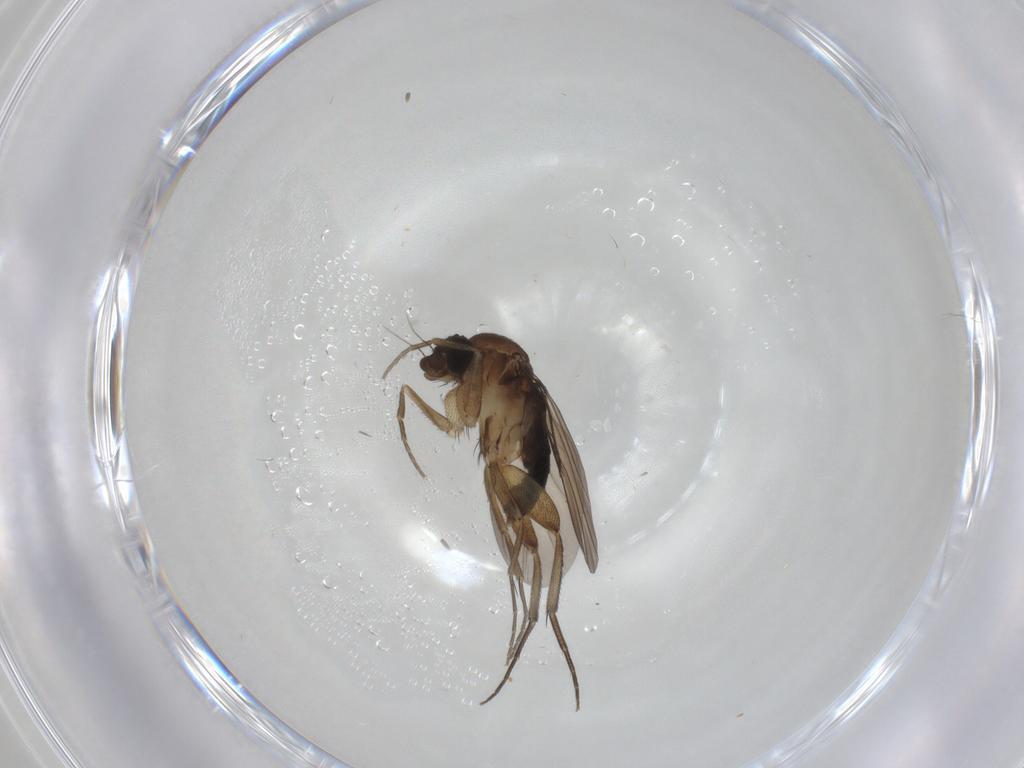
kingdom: Animalia
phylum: Arthropoda
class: Insecta
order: Diptera
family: Phoridae
